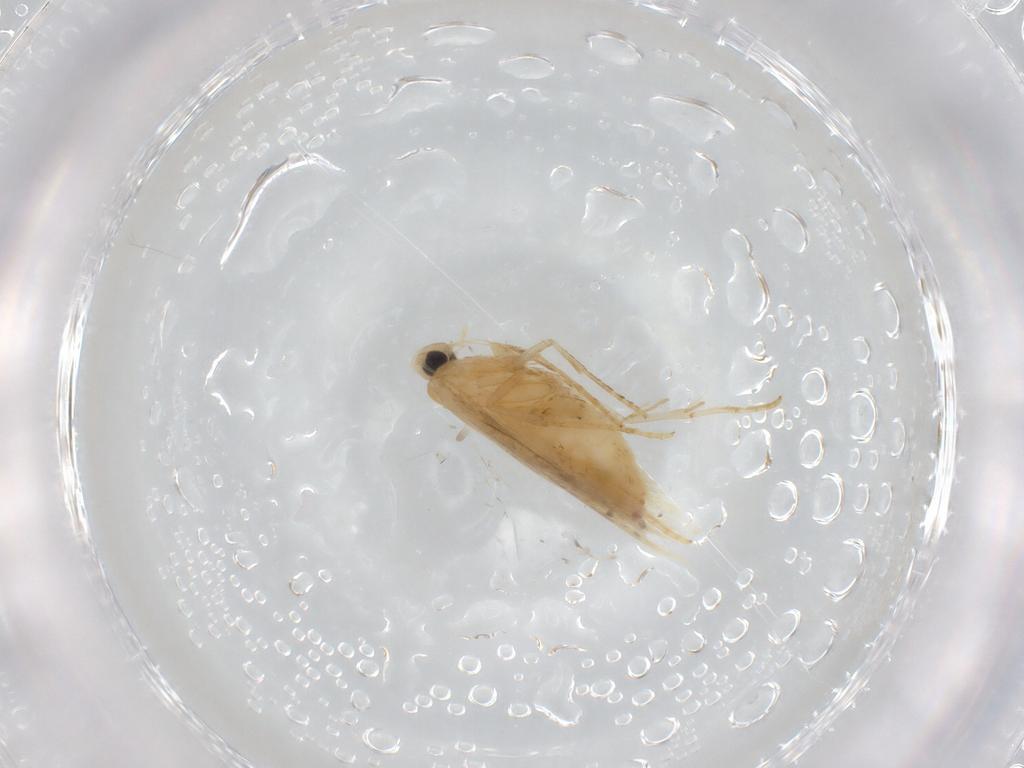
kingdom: Animalia
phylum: Arthropoda
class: Insecta
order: Lepidoptera
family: Tischeriidae
